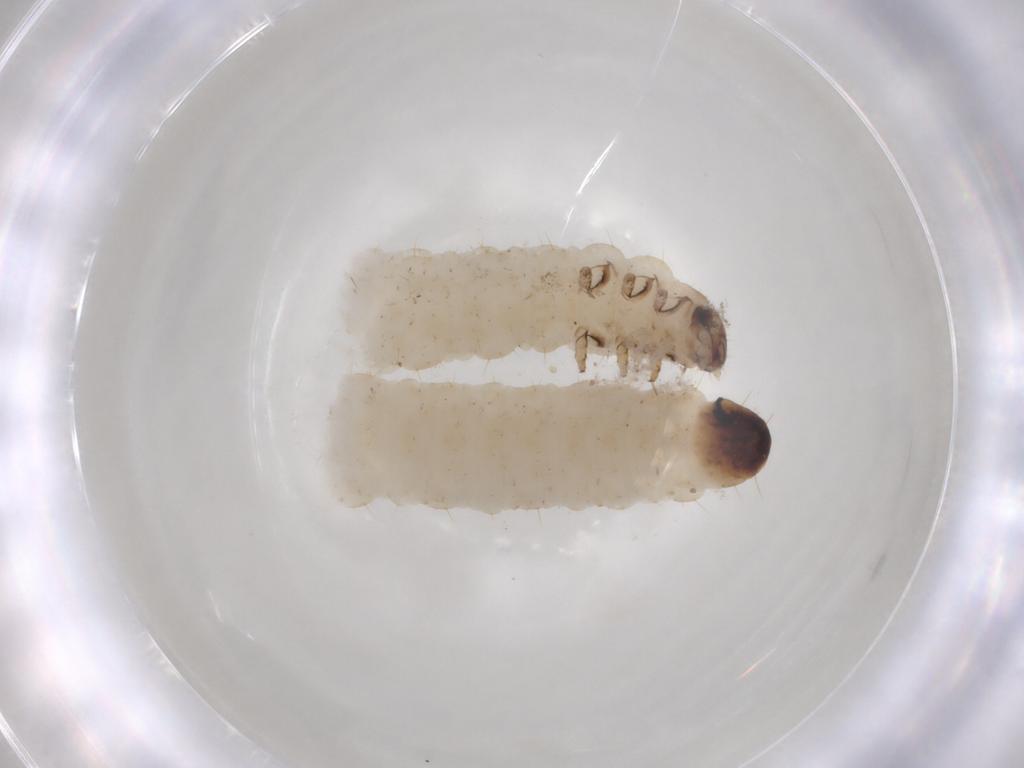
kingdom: Animalia
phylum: Arthropoda
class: Insecta
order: Coleoptera
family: Chrysomelidae
